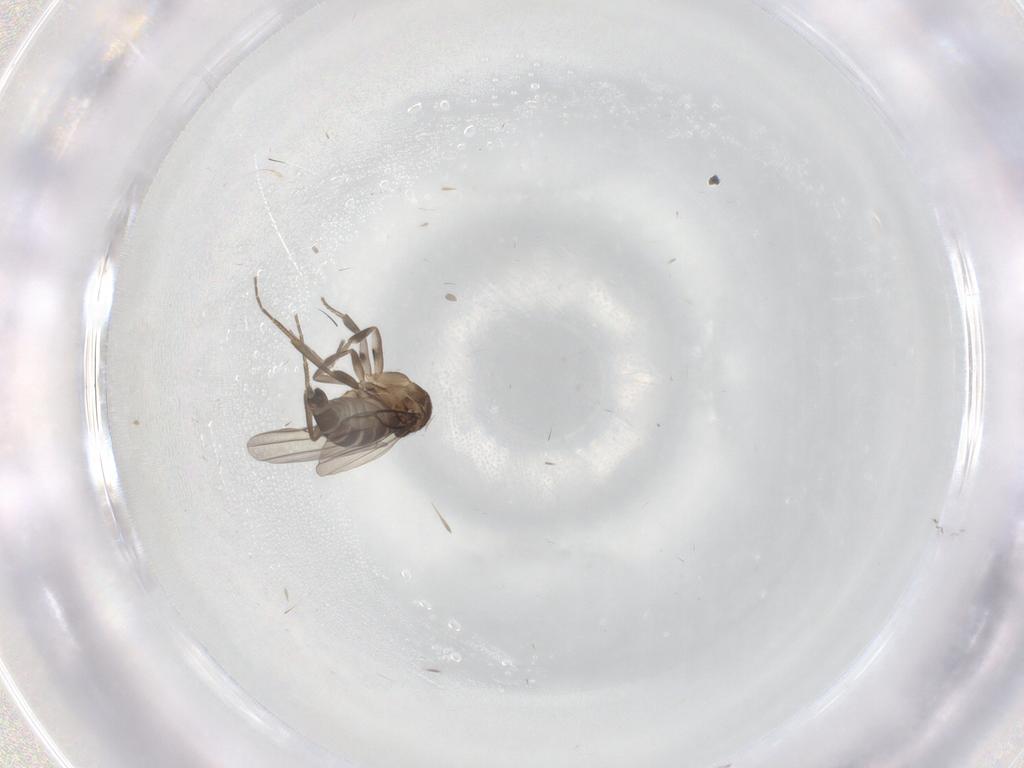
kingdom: Animalia
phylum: Arthropoda
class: Insecta
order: Diptera
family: Phoridae
